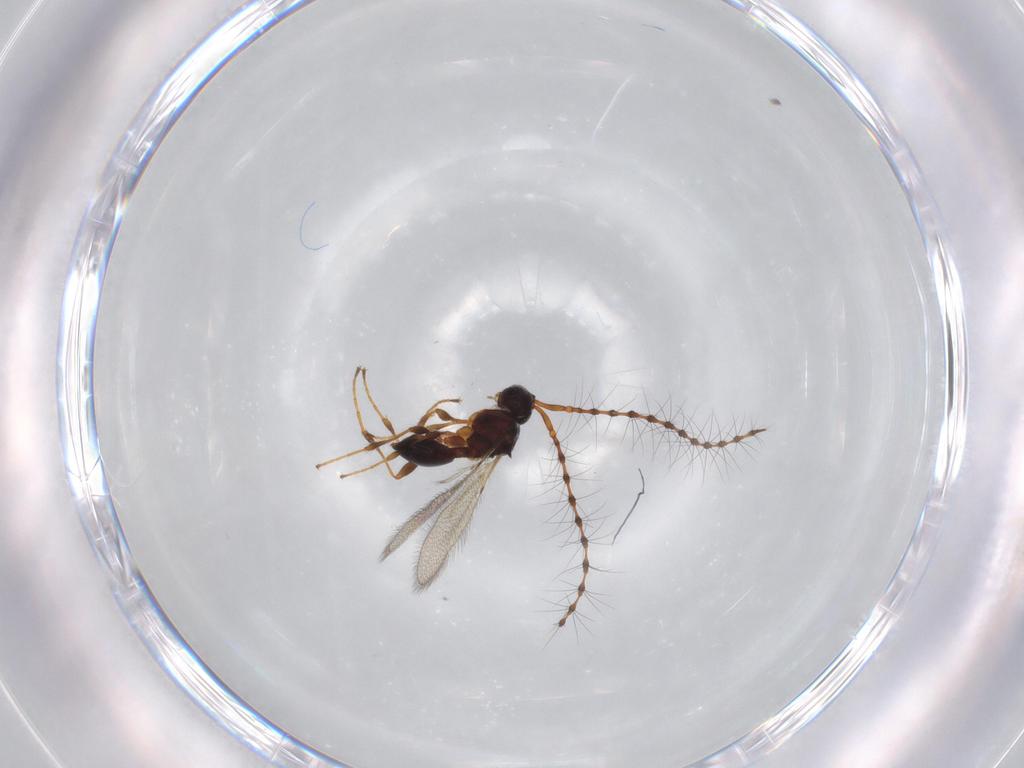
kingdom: Animalia
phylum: Arthropoda
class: Insecta
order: Hymenoptera
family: Diapriidae
